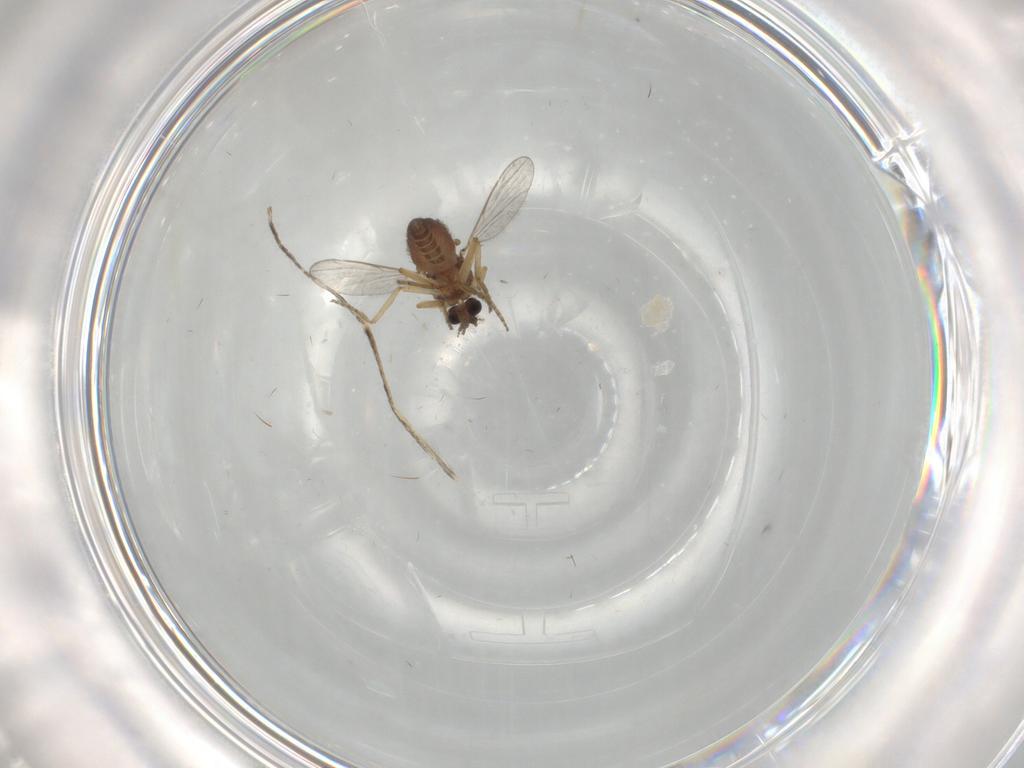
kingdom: Animalia
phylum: Arthropoda
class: Insecta
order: Diptera
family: Ceratopogonidae
